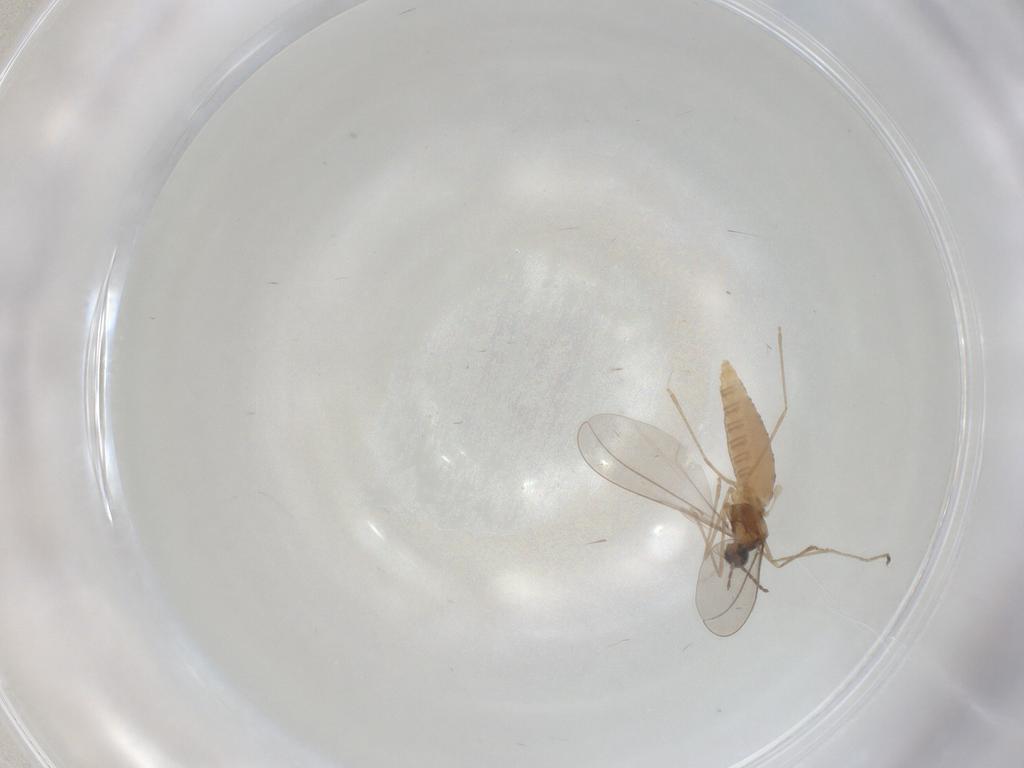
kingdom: Animalia
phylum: Arthropoda
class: Insecta
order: Diptera
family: Cecidomyiidae
